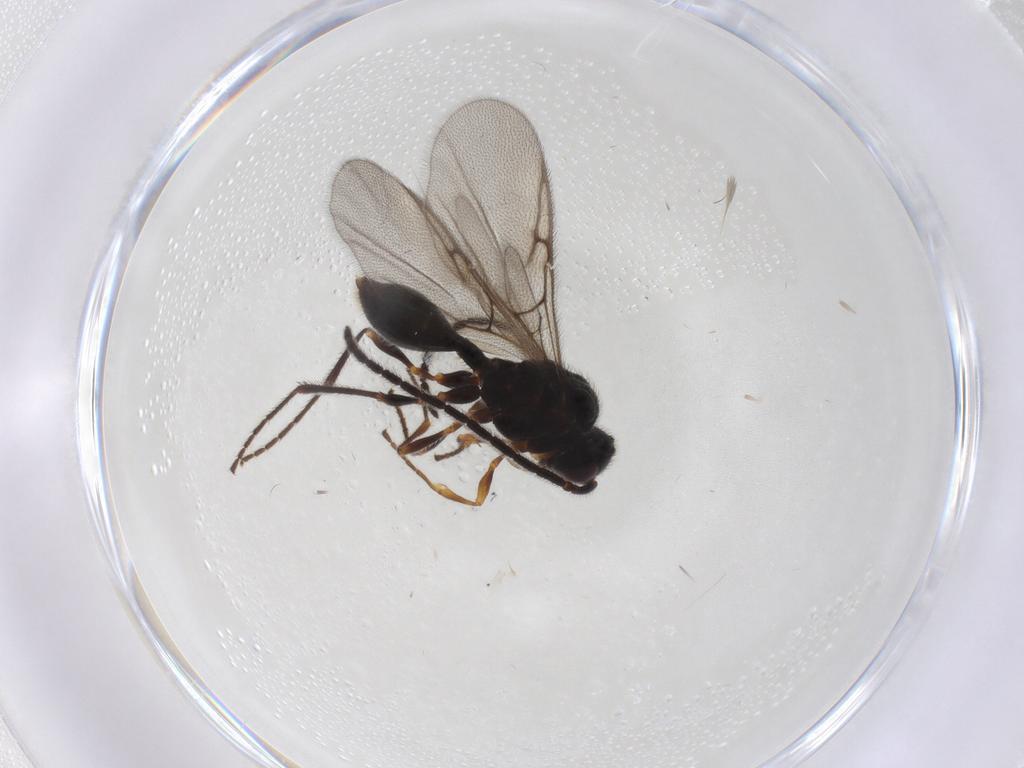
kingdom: Animalia
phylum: Arthropoda
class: Insecta
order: Hymenoptera
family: Diapriidae
